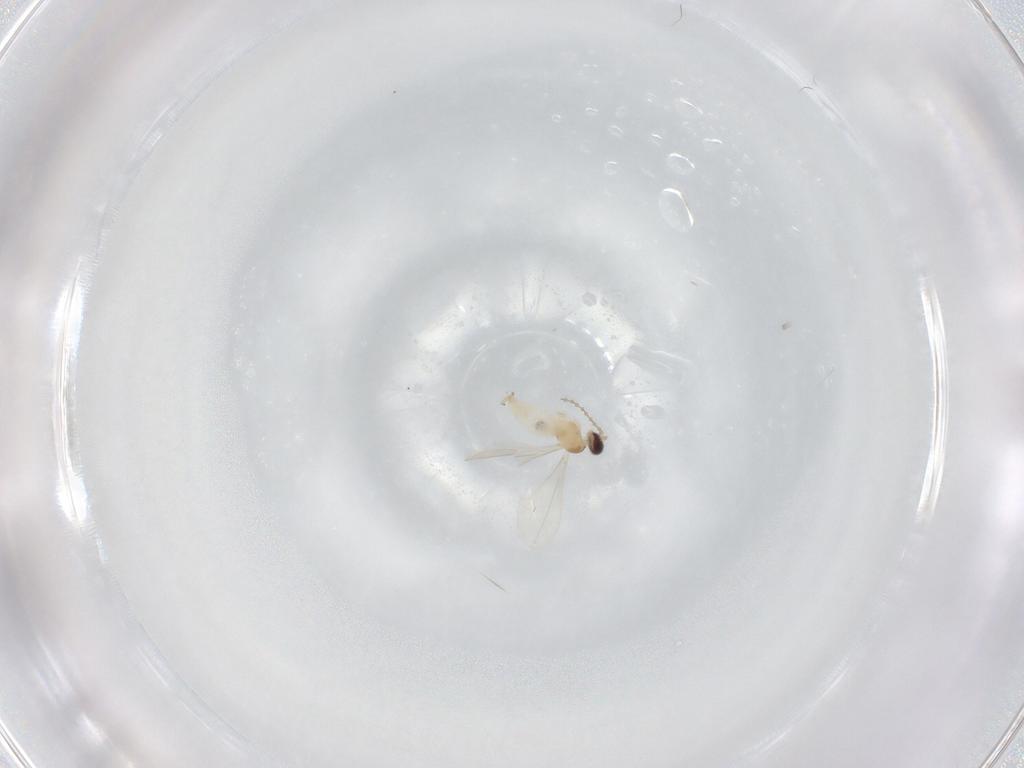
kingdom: Animalia
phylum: Arthropoda
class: Insecta
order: Diptera
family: Cecidomyiidae
